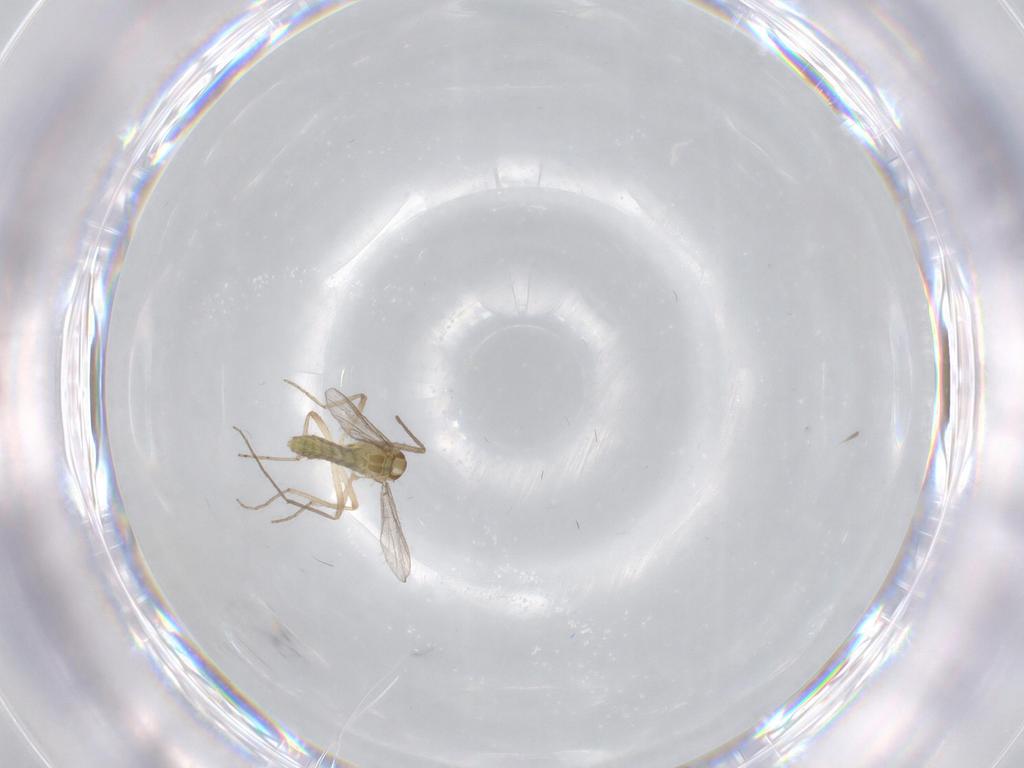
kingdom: Animalia
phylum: Arthropoda
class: Insecta
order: Diptera
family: Chironomidae
